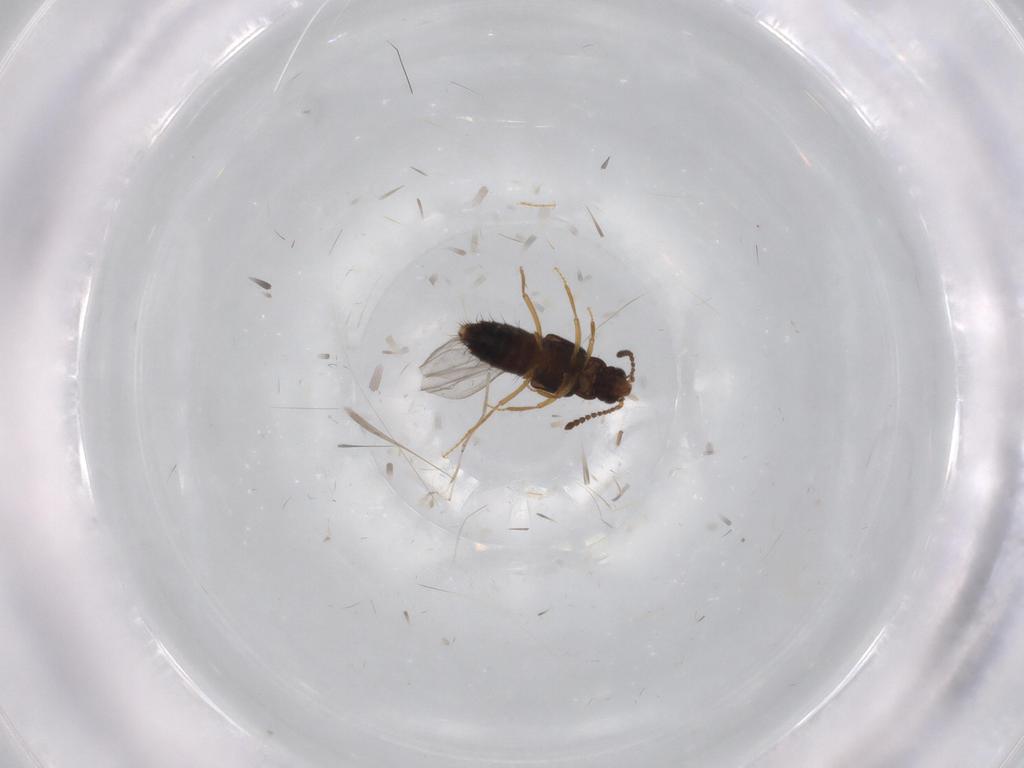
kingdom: Animalia
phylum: Arthropoda
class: Insecta
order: Coleoptera
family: Staphylinidae
